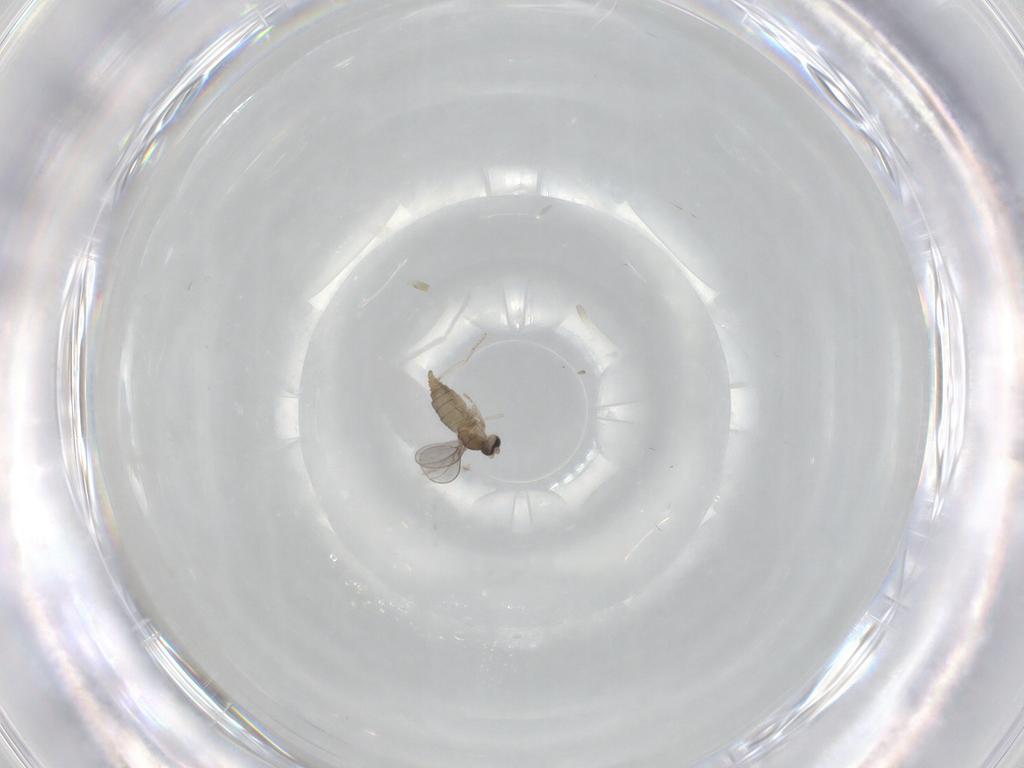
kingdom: Animalia
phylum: Arthropoda
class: Insecta
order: Diptera
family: Cecidomyiidae
